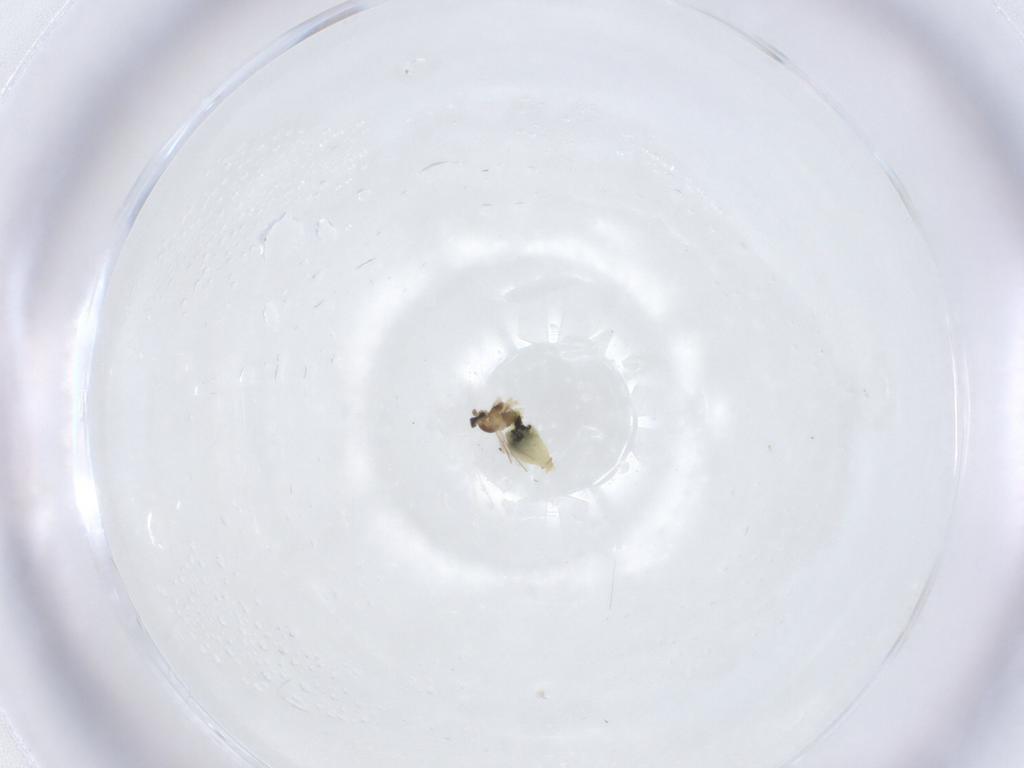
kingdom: Animalia
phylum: Arthropoda
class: Insecta
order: Diptera
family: Cecidomyiidae
